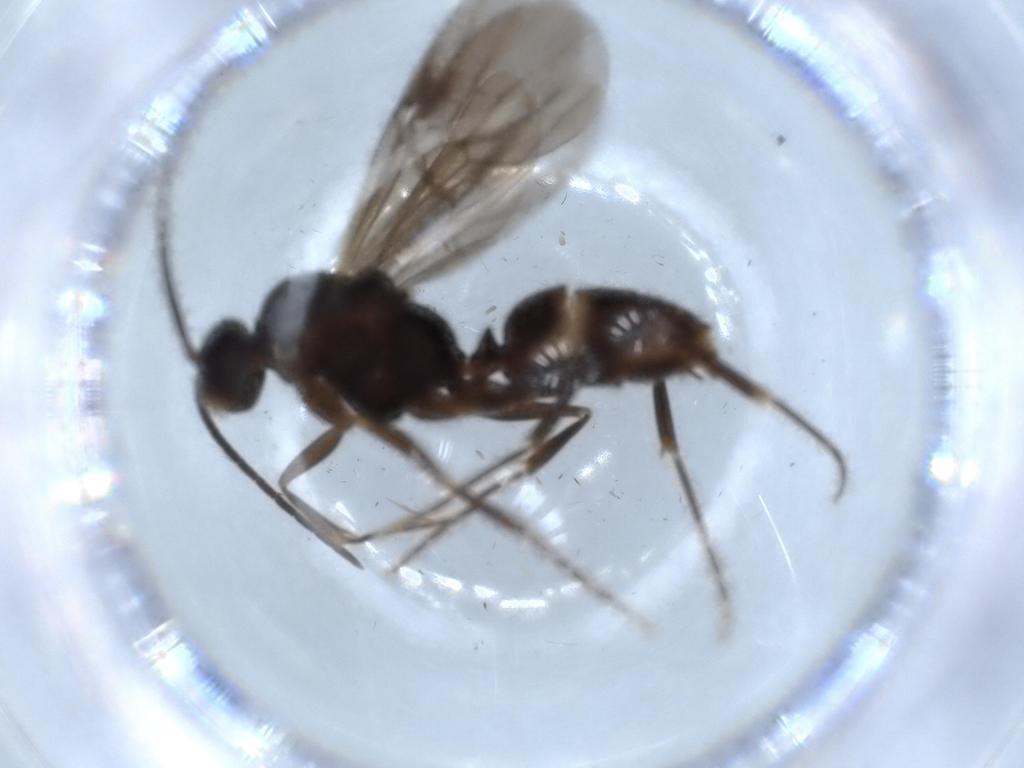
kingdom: Animalia
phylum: Arthropoda
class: Insecta
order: Hymenoptera
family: Formicidae
